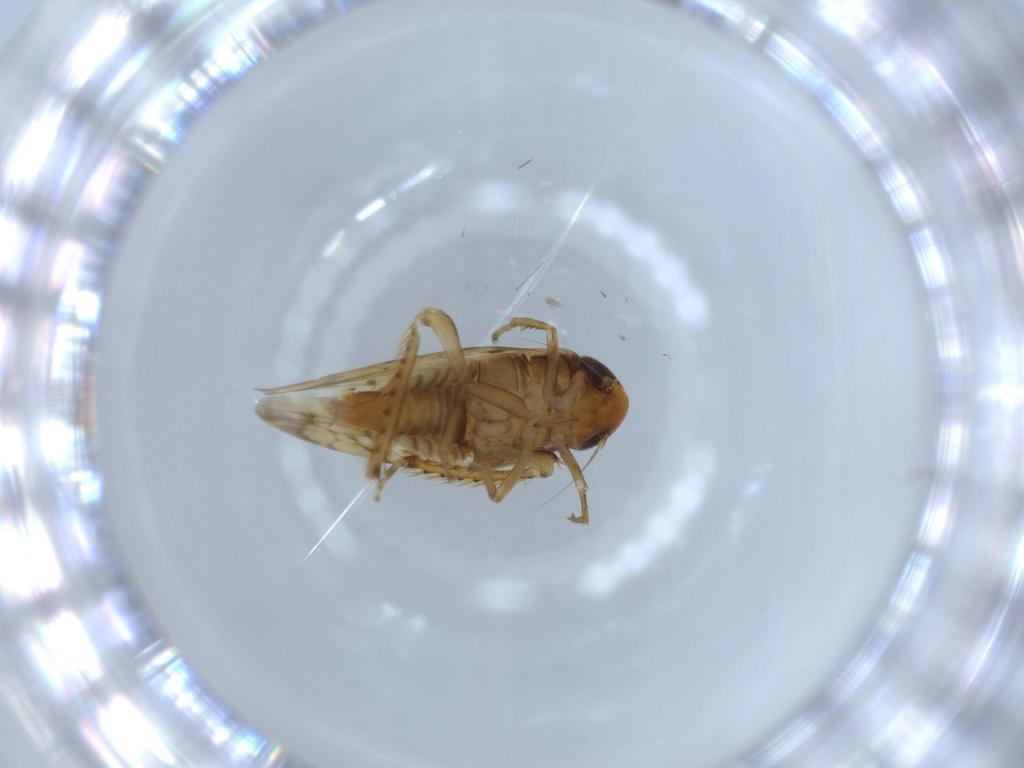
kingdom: Animalia
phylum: Arthropoda
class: Insecta
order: Hemiptera
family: Cicadellidae
